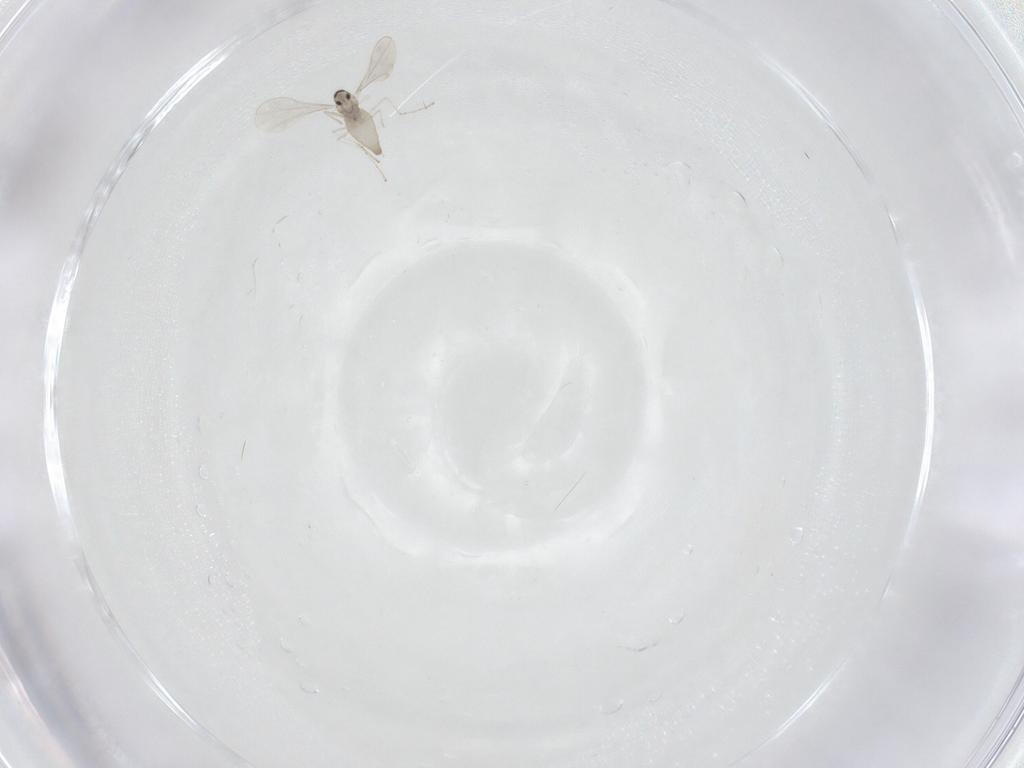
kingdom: Animalia
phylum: Arthropoda
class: Insecta
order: Diptera
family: Cecidomyiidae
